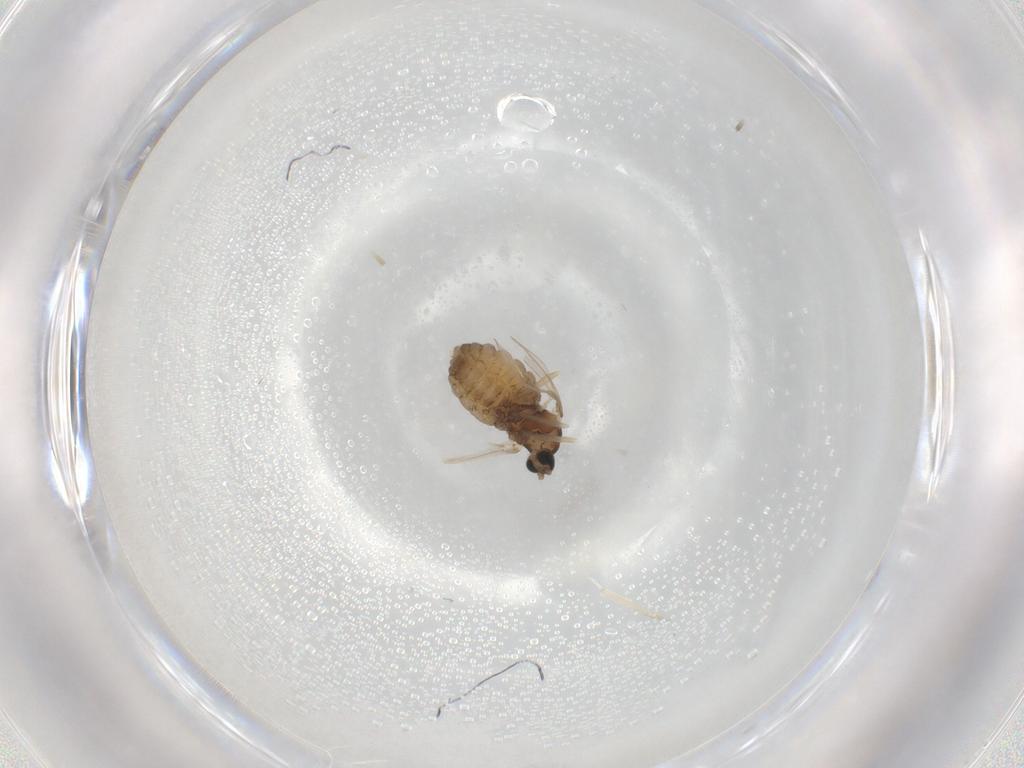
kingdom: Animalia
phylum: Arthropoda
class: Insecta
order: Diptera
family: Cecidomyiidae
